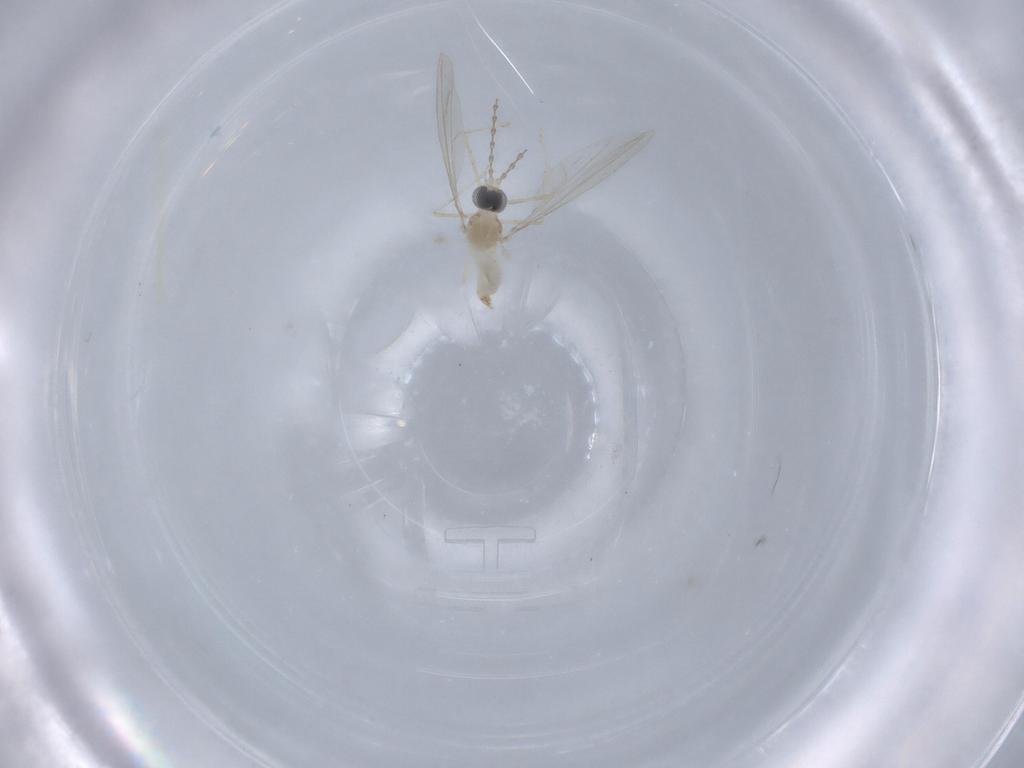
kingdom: Animalia
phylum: Arthropoda
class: Insecta
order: Diptera
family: Cecidomyiidae
